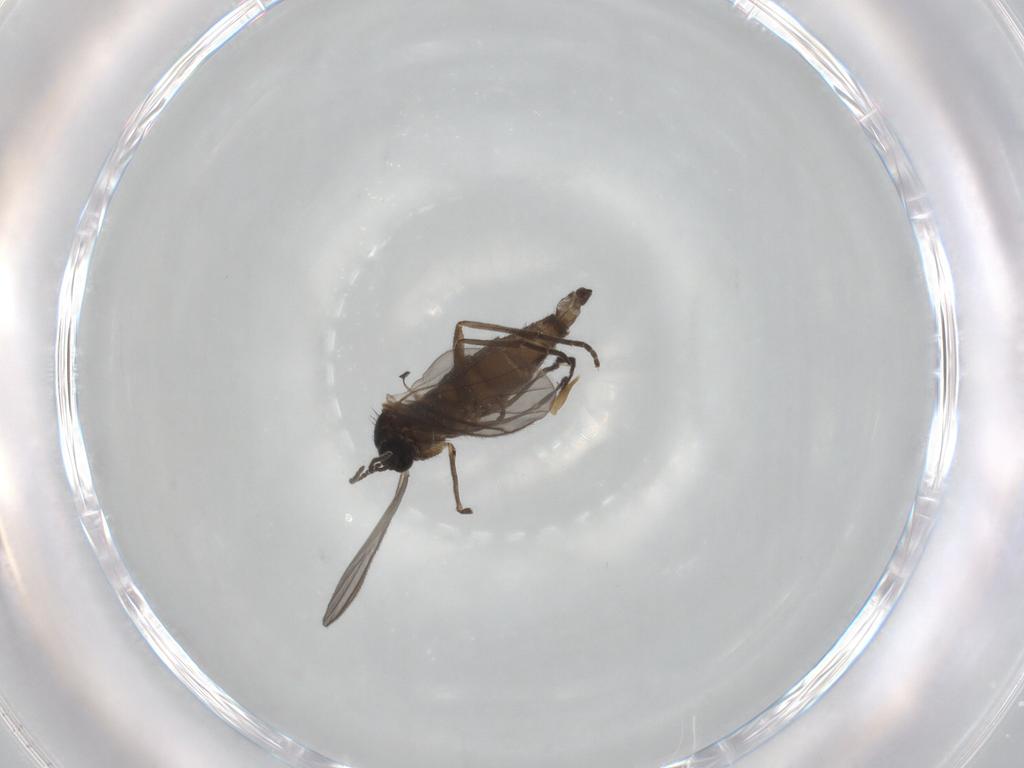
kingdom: Animalia
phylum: Arthropoda
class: Insecta
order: Diptera
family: Sciaridae
